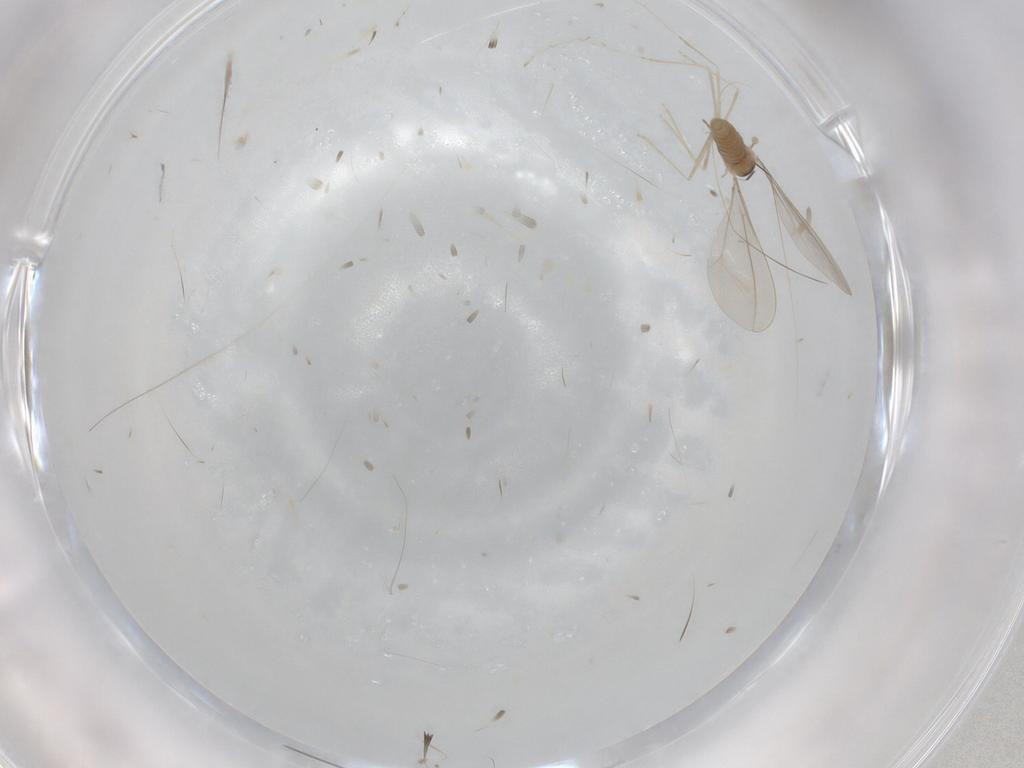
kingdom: Animalia
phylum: Arthropoda
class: Insecta
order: Diptera
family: Cecidomyiidae
